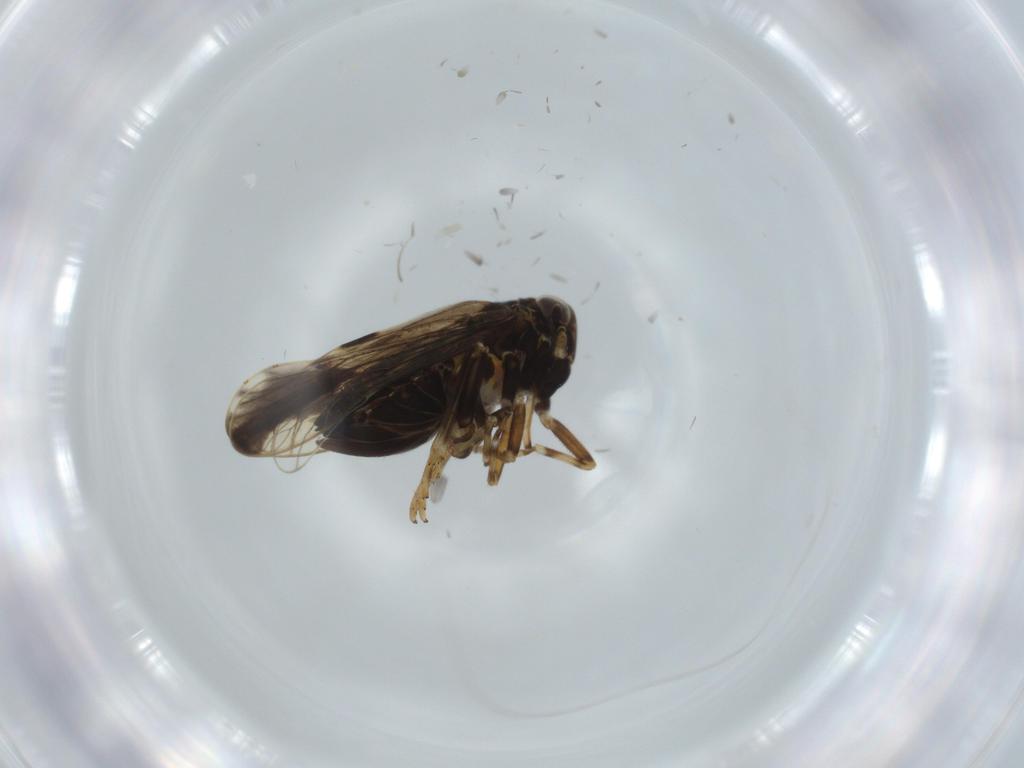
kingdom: Animalia
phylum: Arthropoda
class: Insecta
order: Hemiptera
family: Delphacidae
